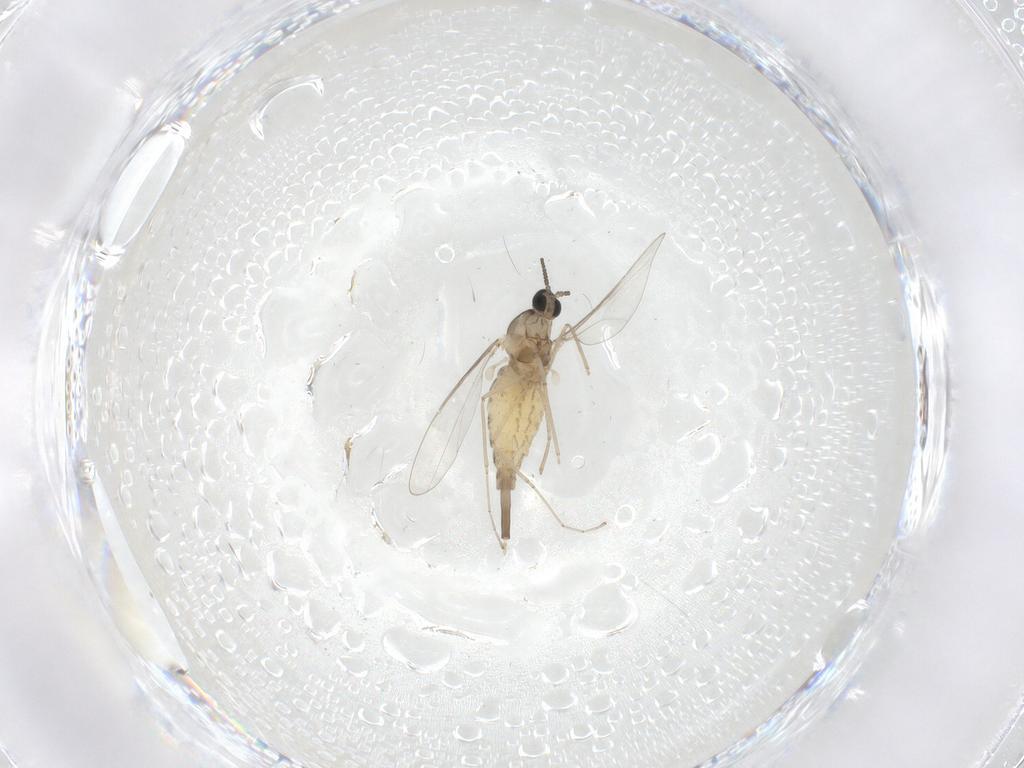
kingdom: Animalia
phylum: Arthropoda
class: Insecta
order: Diptera
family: Cecidomyiidae
